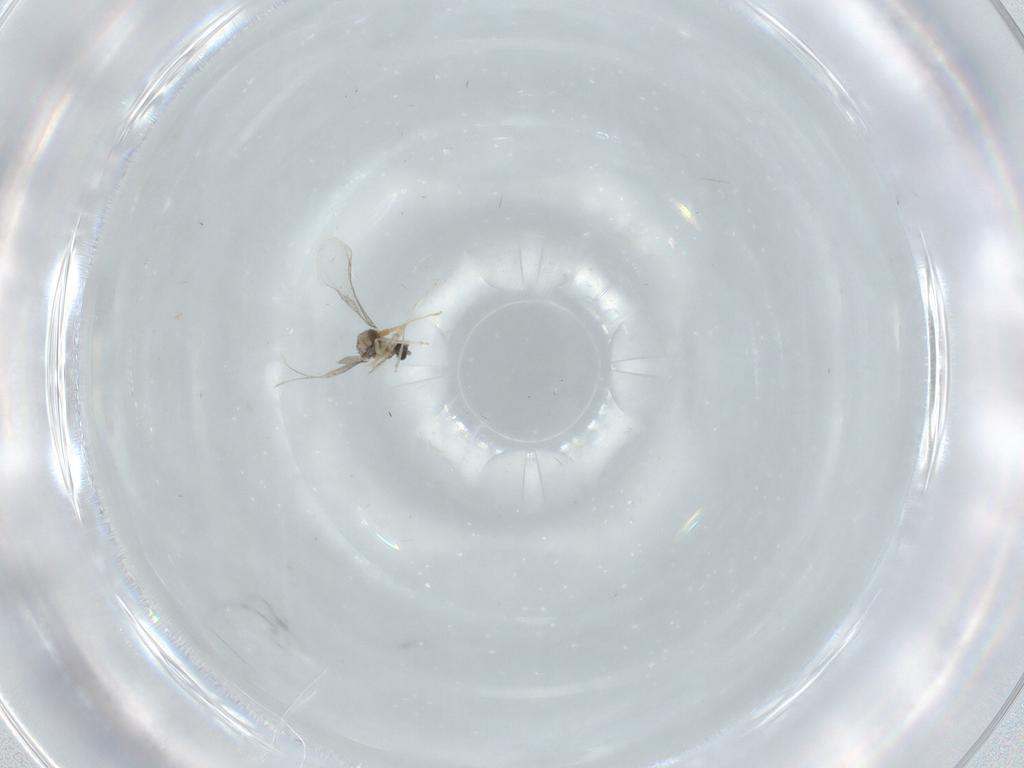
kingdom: Animalia
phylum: Arthropoda
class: Insecta
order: Diptera
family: Cecidomyiidae
